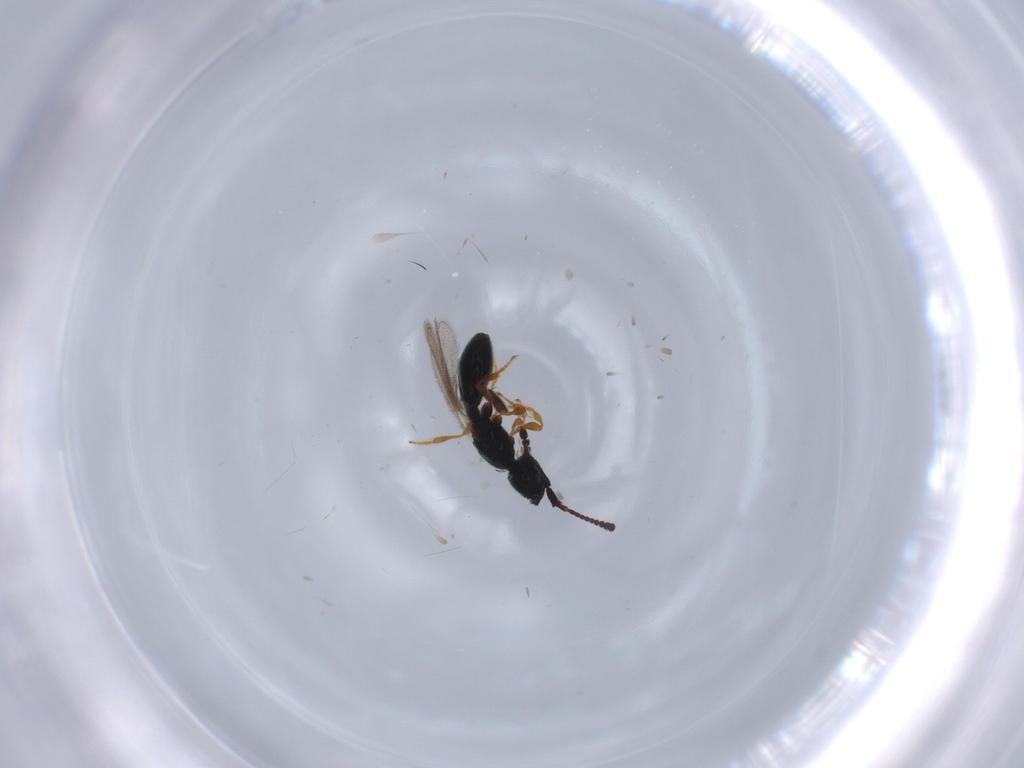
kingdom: Animalia
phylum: Arthropoda
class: Insecta
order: Hymenoptera
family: Diapriidae
